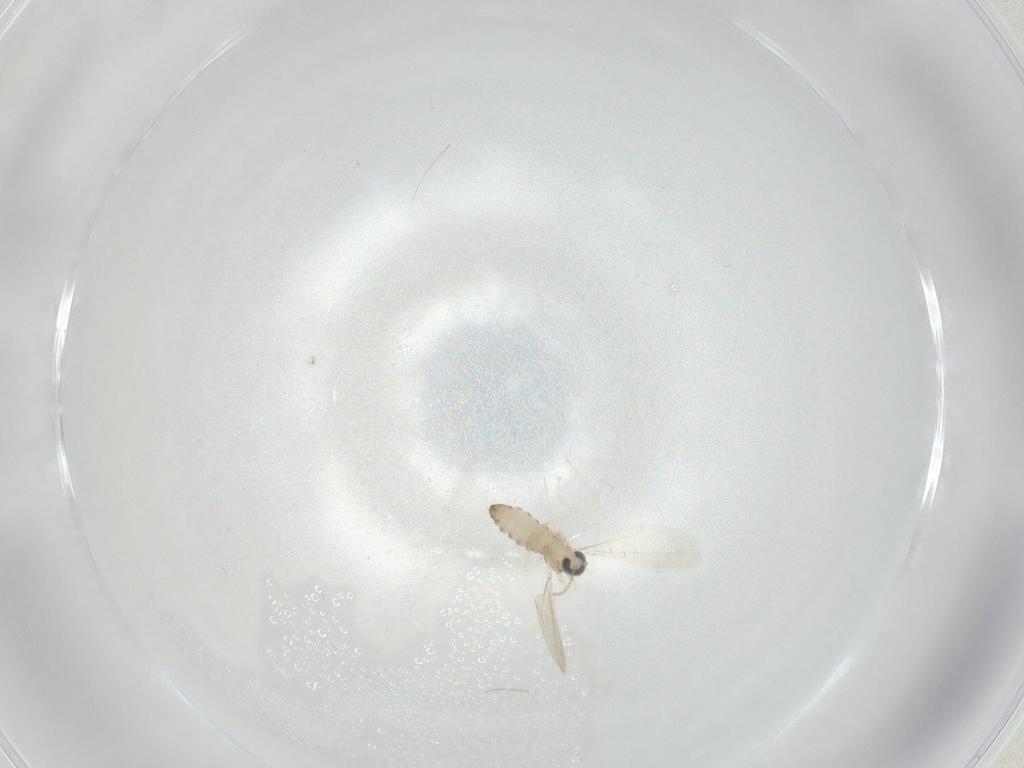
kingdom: Animalia
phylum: Arthropoda
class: Insecta
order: Diptera
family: Cecidomyiidae
